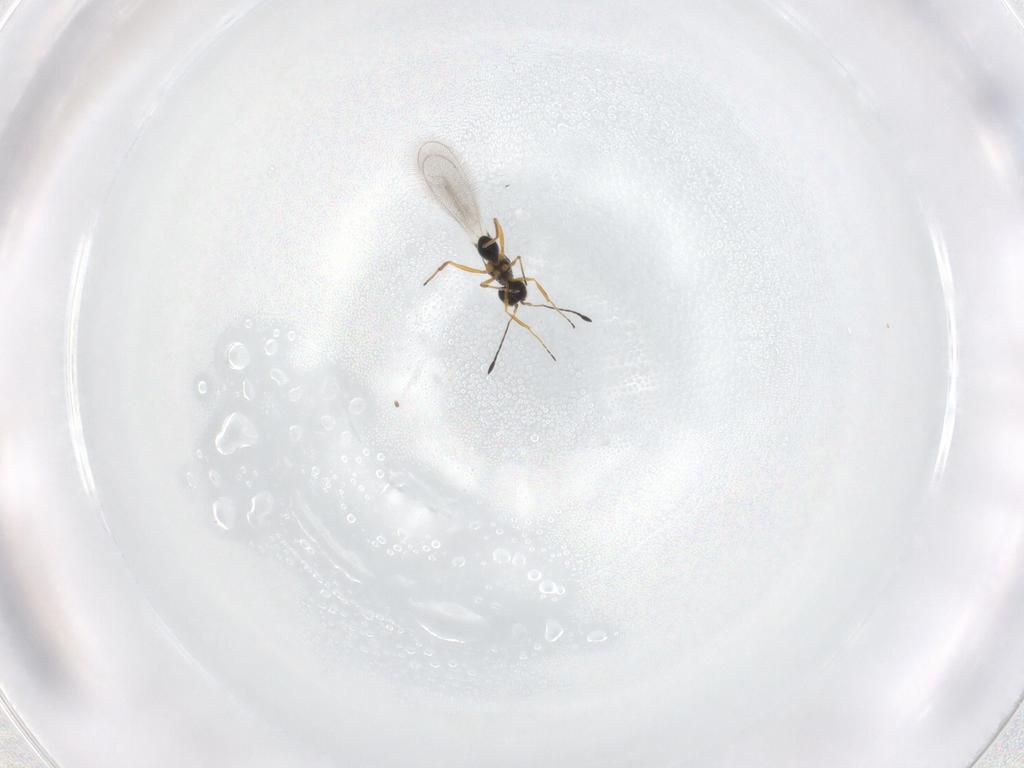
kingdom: Animalia
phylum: Arthropoda
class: Insecta
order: Hymenoptera
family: Mymaridae
